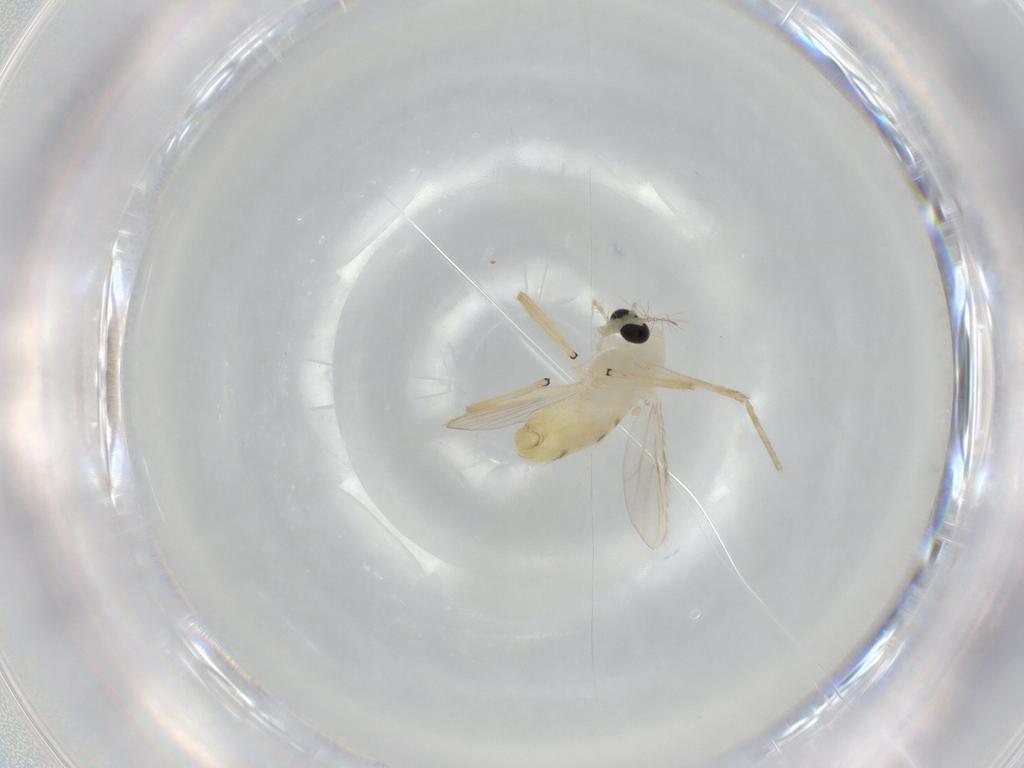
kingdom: Animalia
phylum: Arthropoda
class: Insecta
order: Diptera
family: Chironomidae
